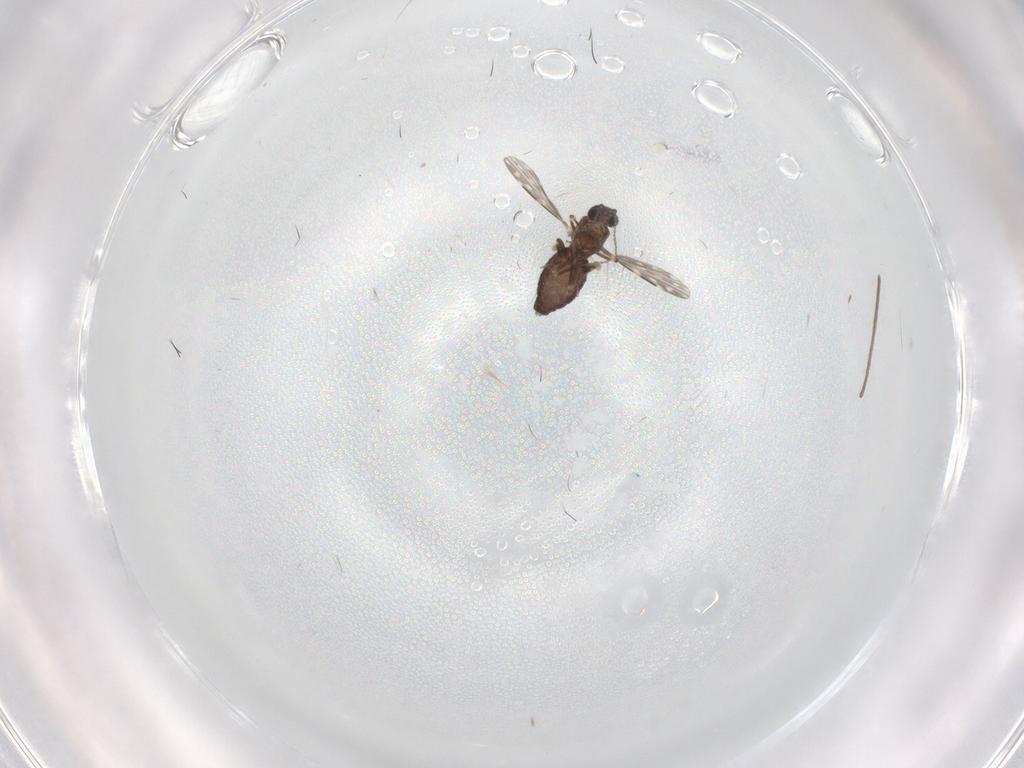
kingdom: Animalia
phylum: Arthropoda
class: Insecta
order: Diptera
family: Ceratopogonidae
